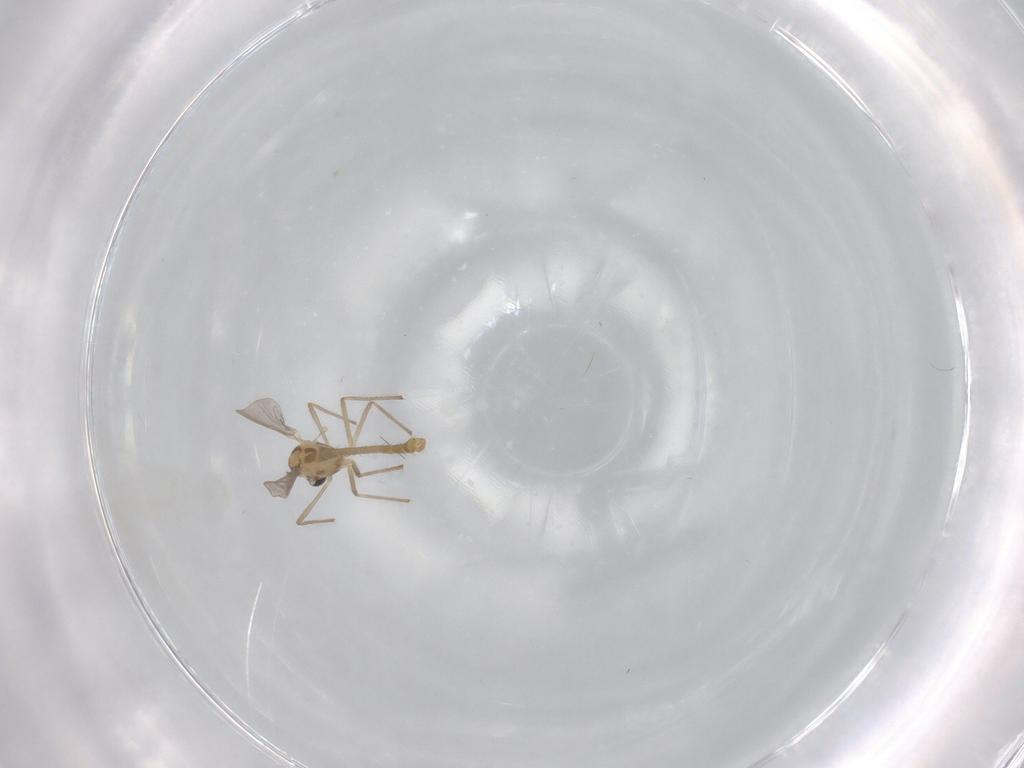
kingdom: Animalia
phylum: Arthropoda
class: Insecta
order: Diptera
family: Chironomidae
